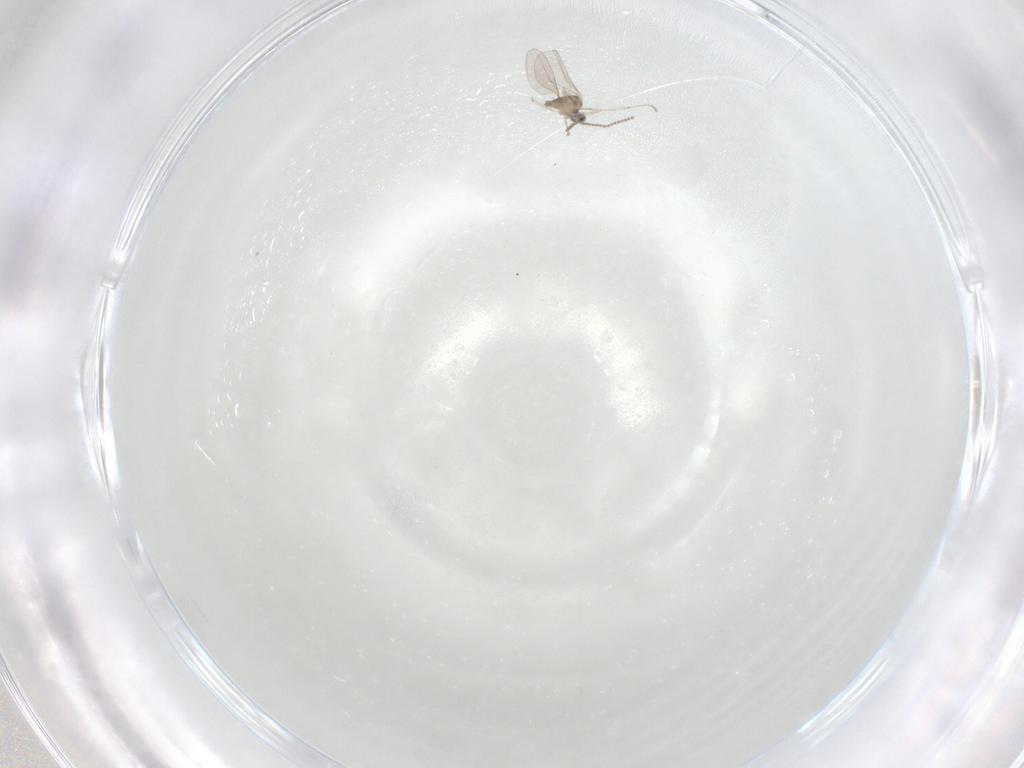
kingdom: Animalia
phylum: Arthropoda
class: Insecta
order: Diptera
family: Cecidomyiidae
